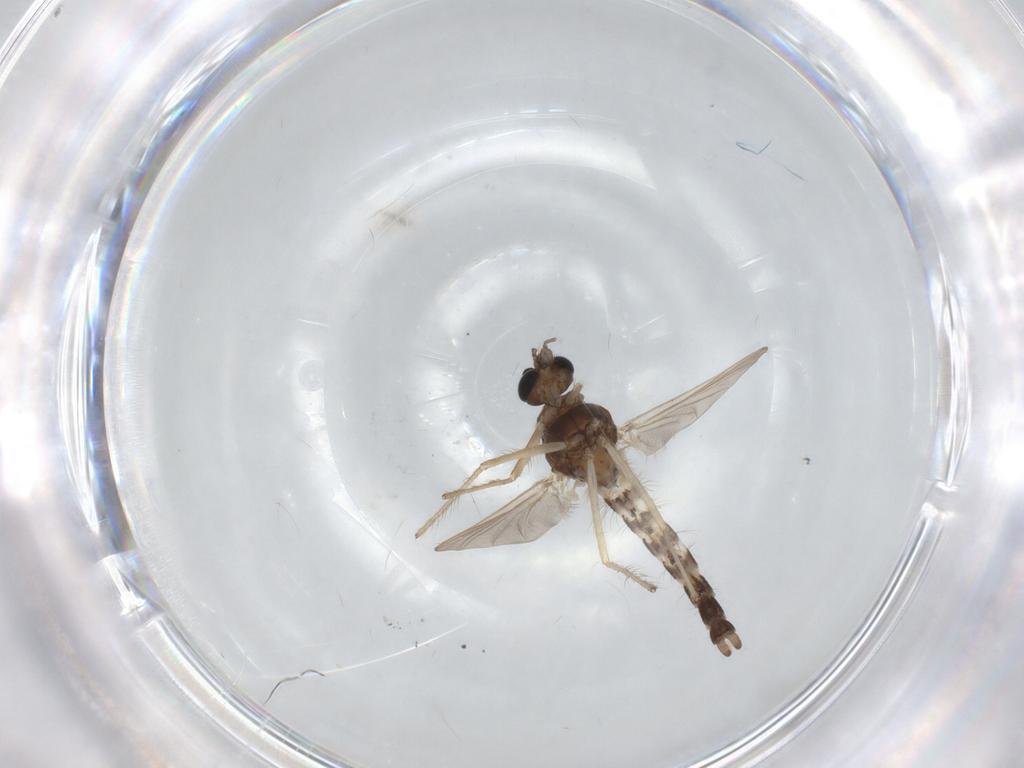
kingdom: Animalia
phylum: Arthropoda
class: Insecta
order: Diptera
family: Chironomidae
